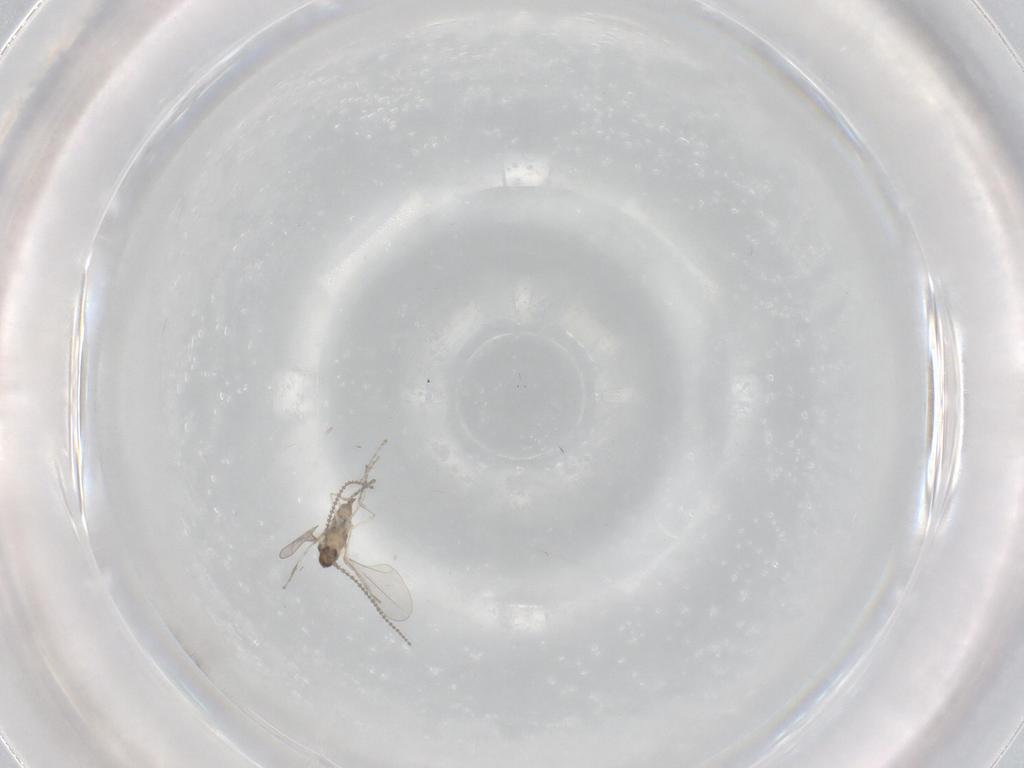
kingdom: Animalia
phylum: Arthropoda
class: Insecta
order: Diptera
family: Cecidomyiidae
